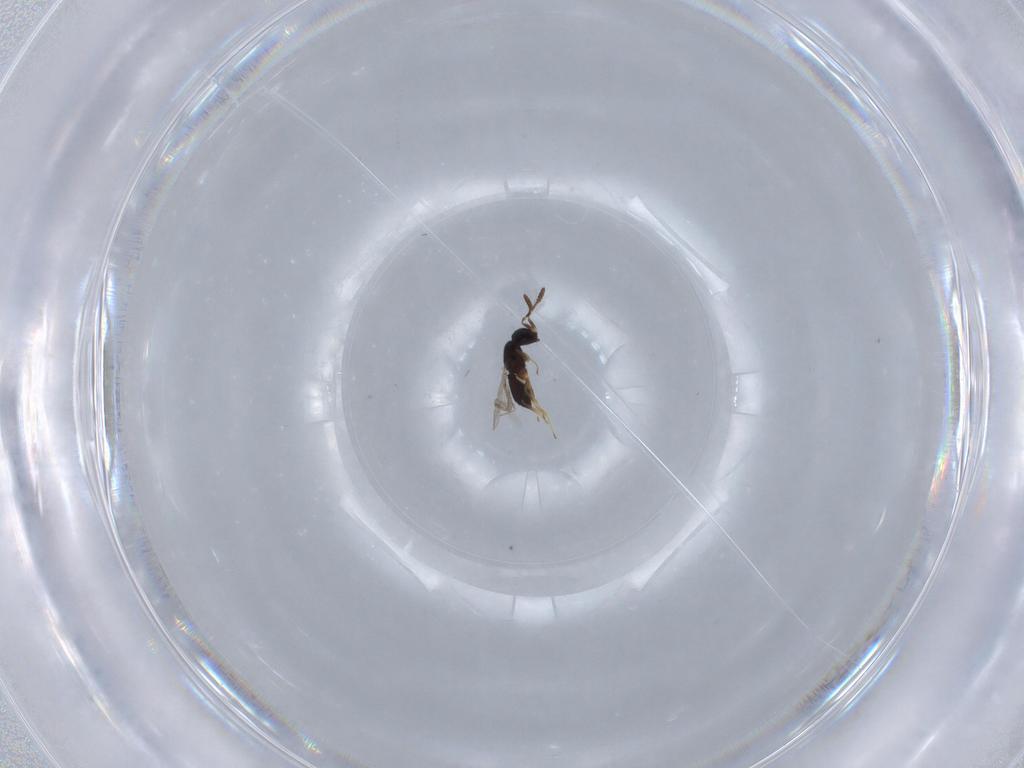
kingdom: Animalia
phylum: Arthropoda
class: Insecta
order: Hymenoptera
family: Scelionidae
